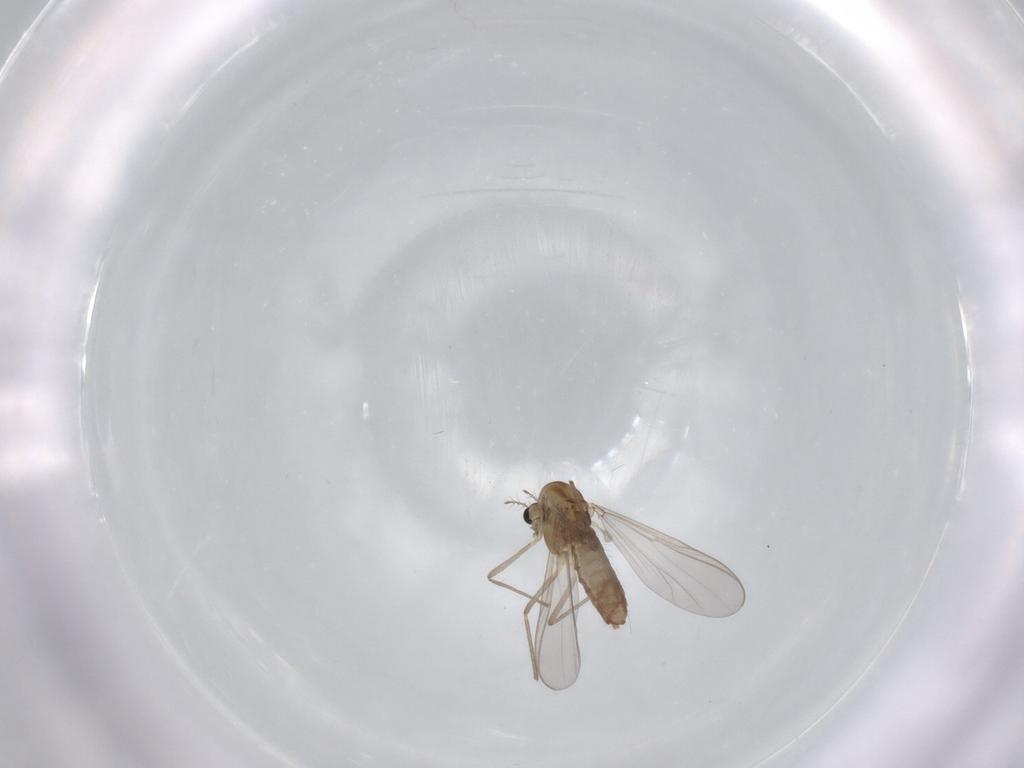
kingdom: Animalia
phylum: Arthropoda
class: Insecta
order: Diptera
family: Chironomidae
